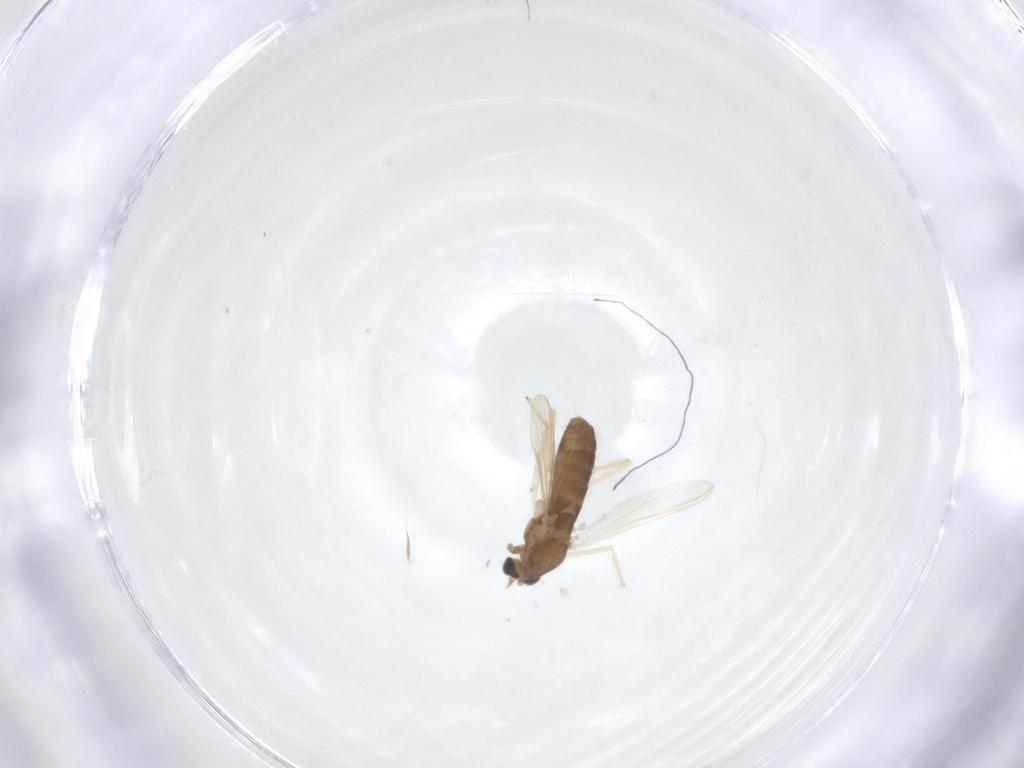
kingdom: Animalia
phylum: Arthropoda
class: Insecta
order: Diptera
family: Chironomidae
